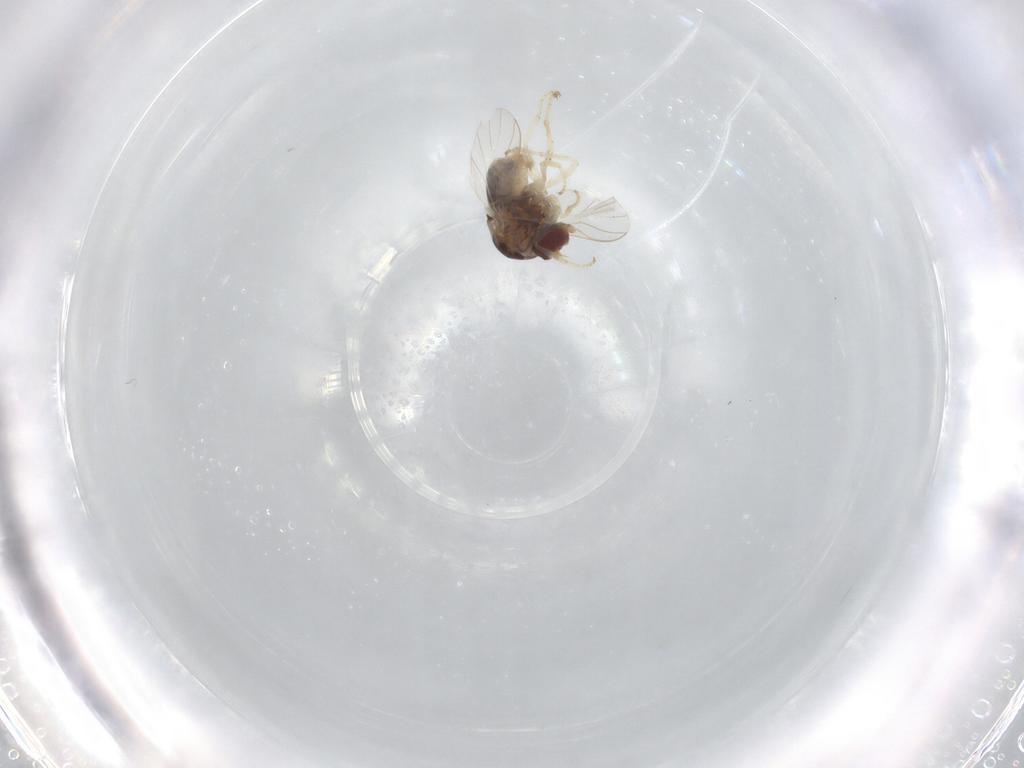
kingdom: Animalia
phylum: Arthropoda
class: Insecta
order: Diptera
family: Bombyliidae
